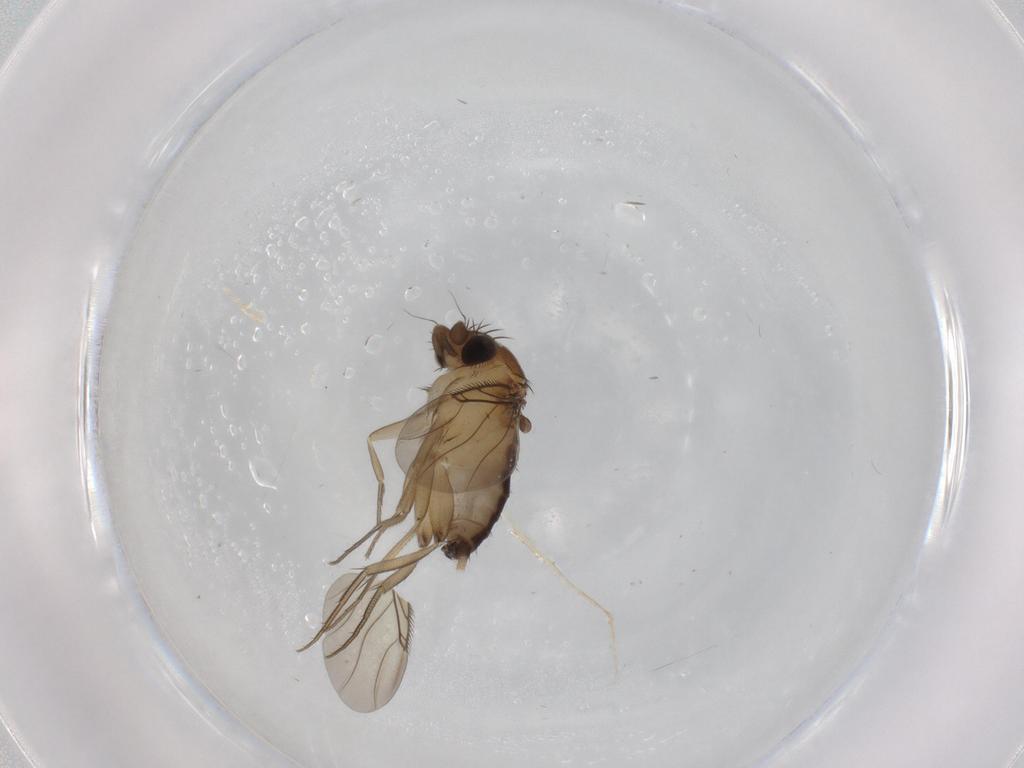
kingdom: Animalia
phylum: Arthropoda
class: Insecta
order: Diptera
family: Phoridae
